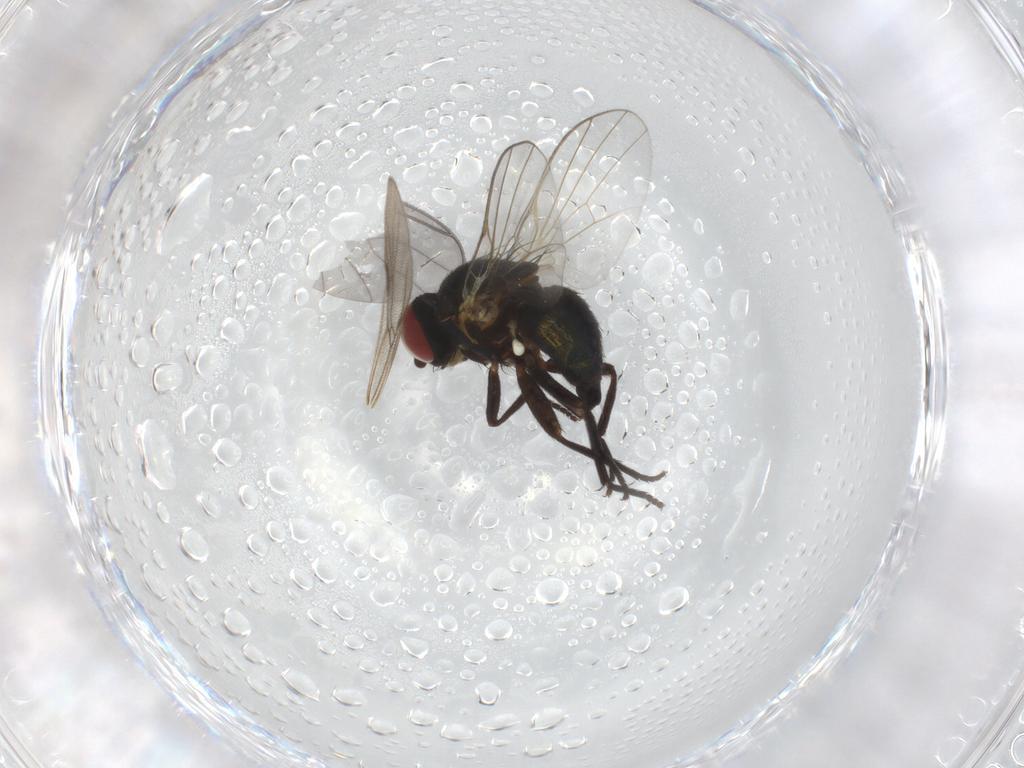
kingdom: Animalia
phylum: Arthropoda
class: Insecta
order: Diptera
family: Agromyzidae
